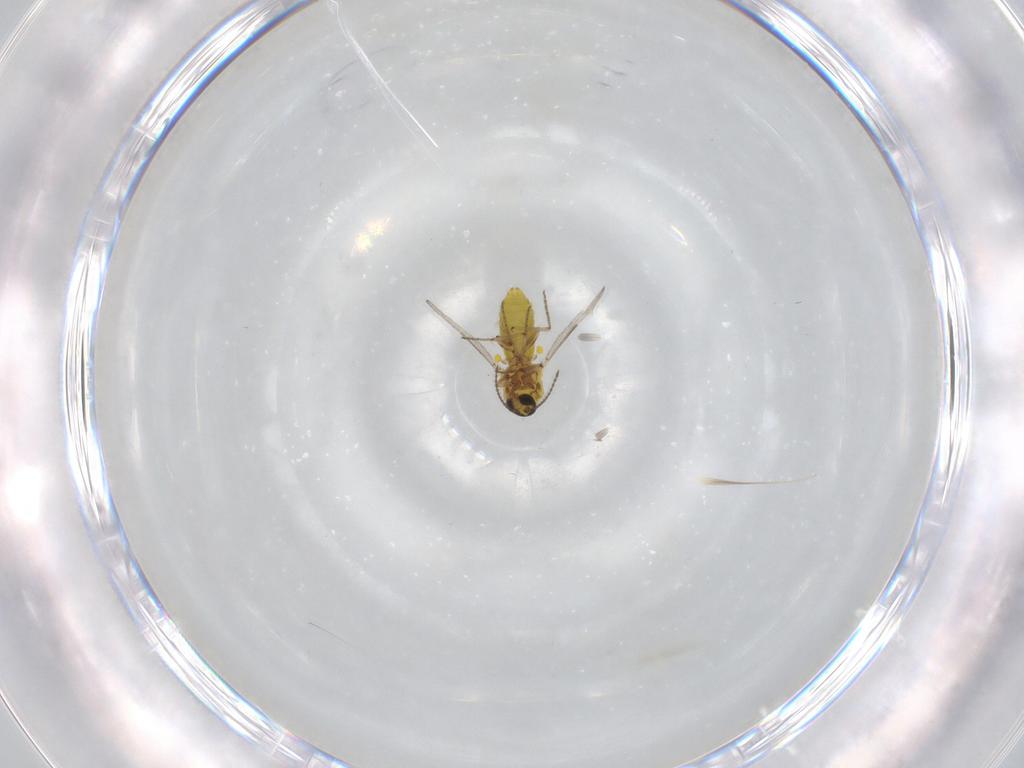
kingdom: Animalia
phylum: Arthropoda
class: Insecta
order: Diptera
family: Ceratopogonidae
